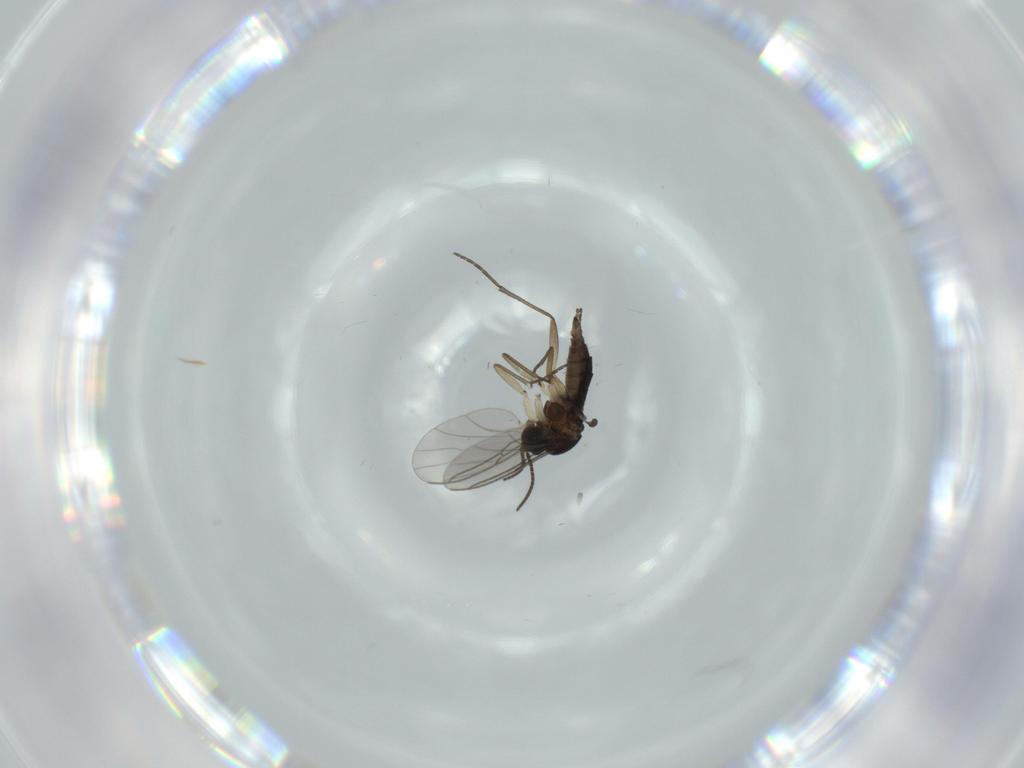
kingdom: Animalia
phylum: Arthropoda
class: Insecta
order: Diptera
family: Sciaridae
